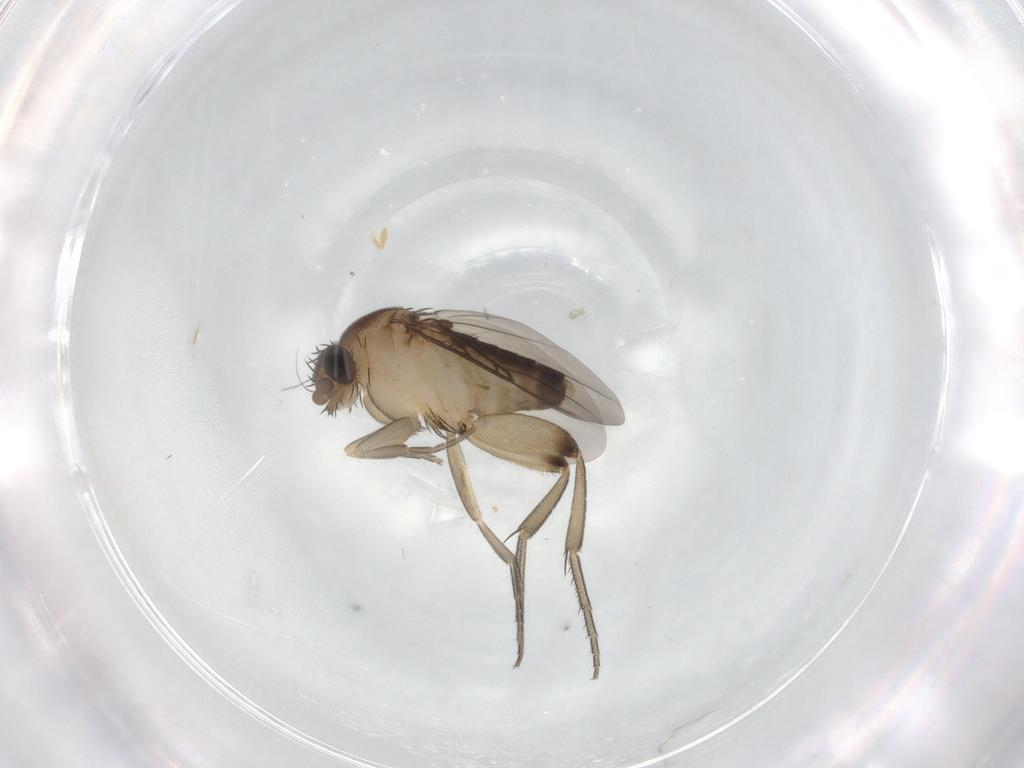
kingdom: Animalia
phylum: Arthropoda
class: Insecta
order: Diptera
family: Phoridae
